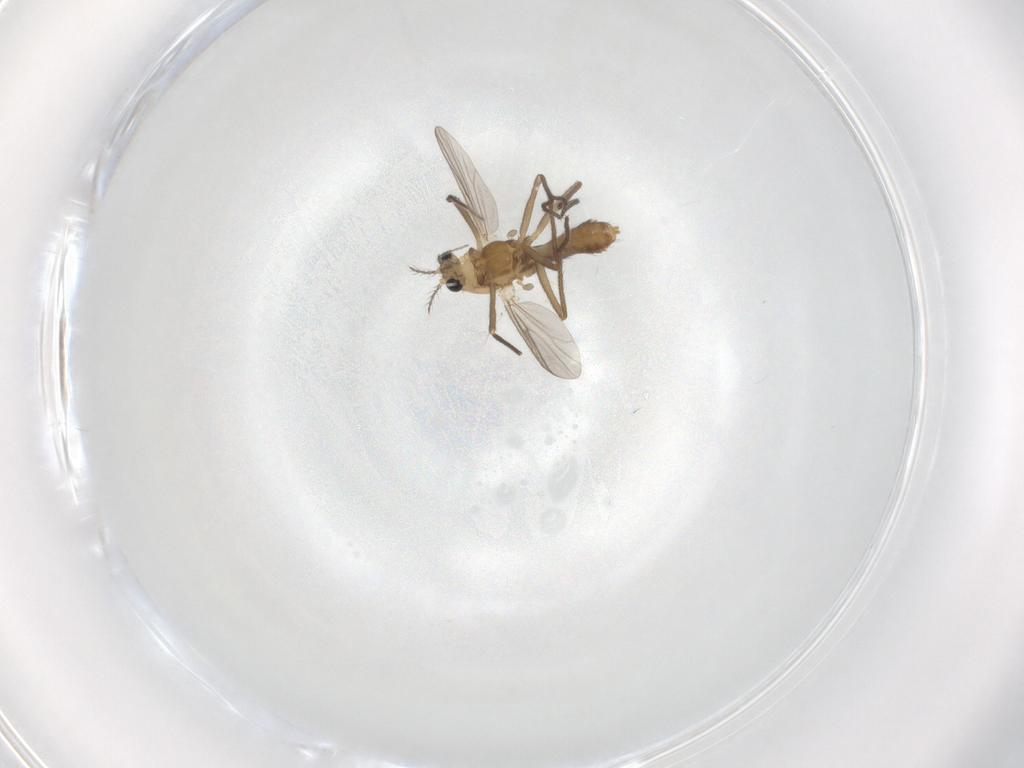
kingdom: Animalia
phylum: Arthropoda
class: Insecta
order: Diptera
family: Chironomidae
